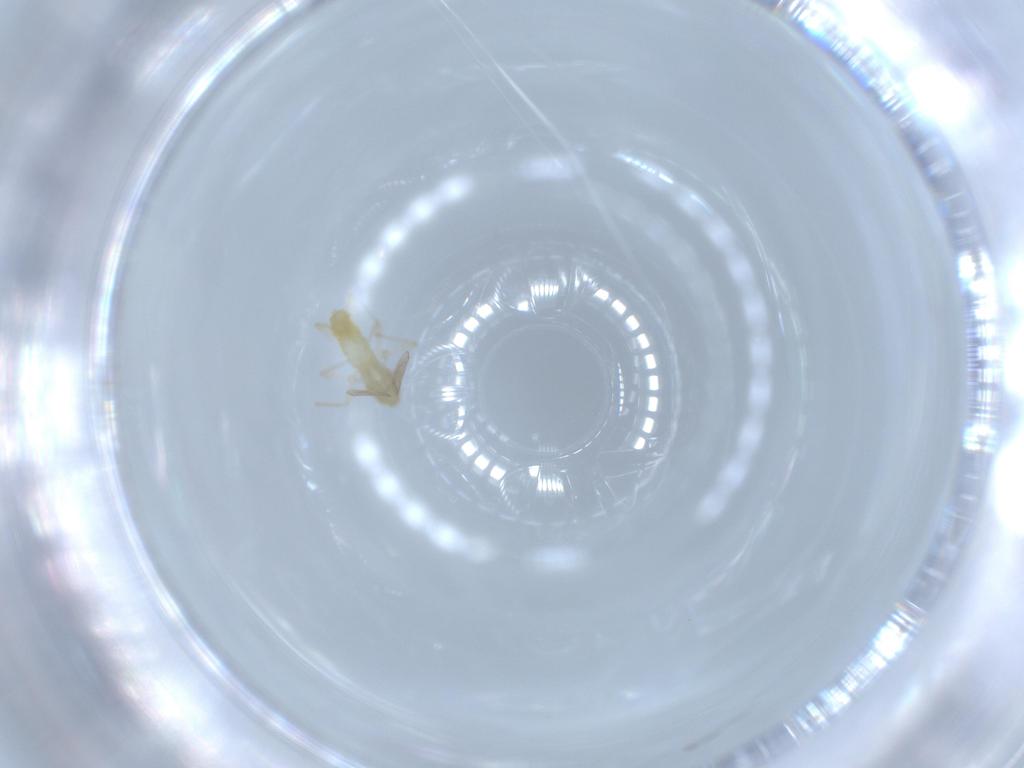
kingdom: Animalia
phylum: Arthropoda
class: Insecta
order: Diptera
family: Chironomidae
